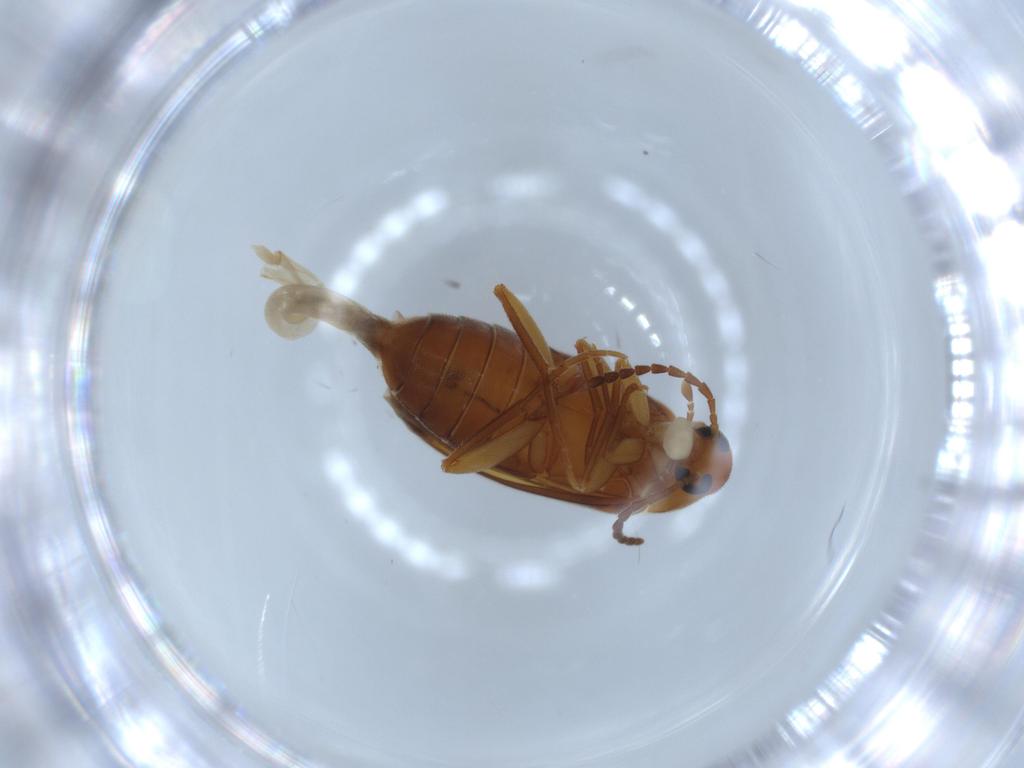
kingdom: Animalia
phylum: Arthropoda
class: Insecta
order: Coleoptera
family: Scraptiidae
